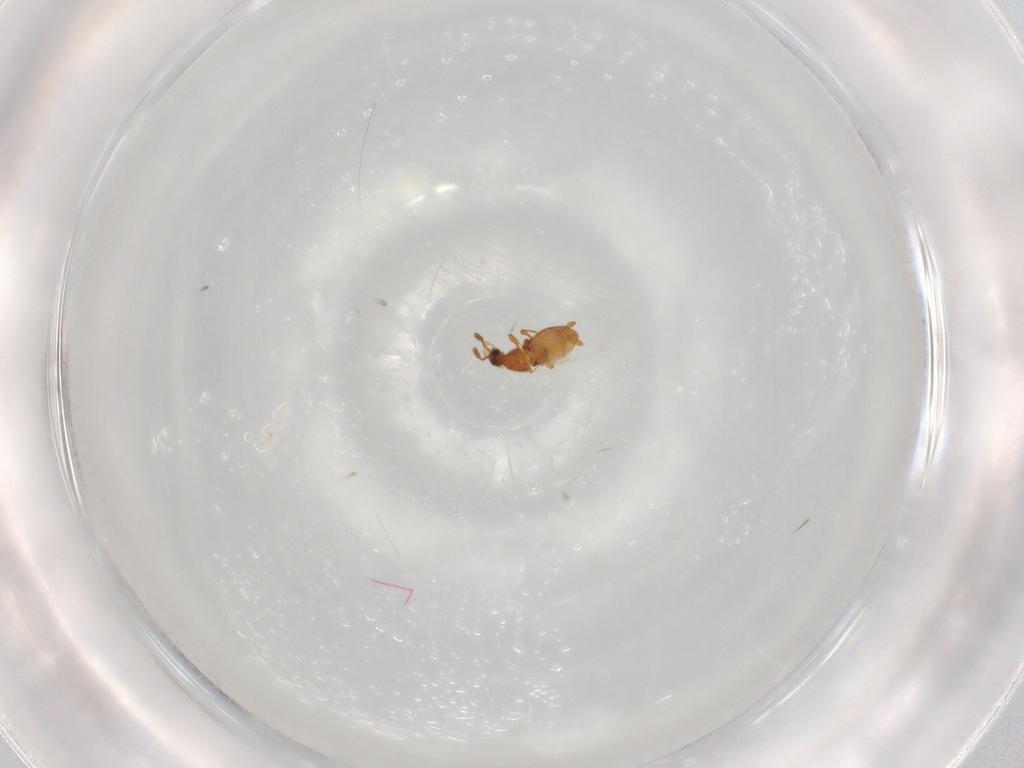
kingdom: Animalia
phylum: Arthropoda
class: Insecta
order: Coleoptera
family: Staphylinidae
